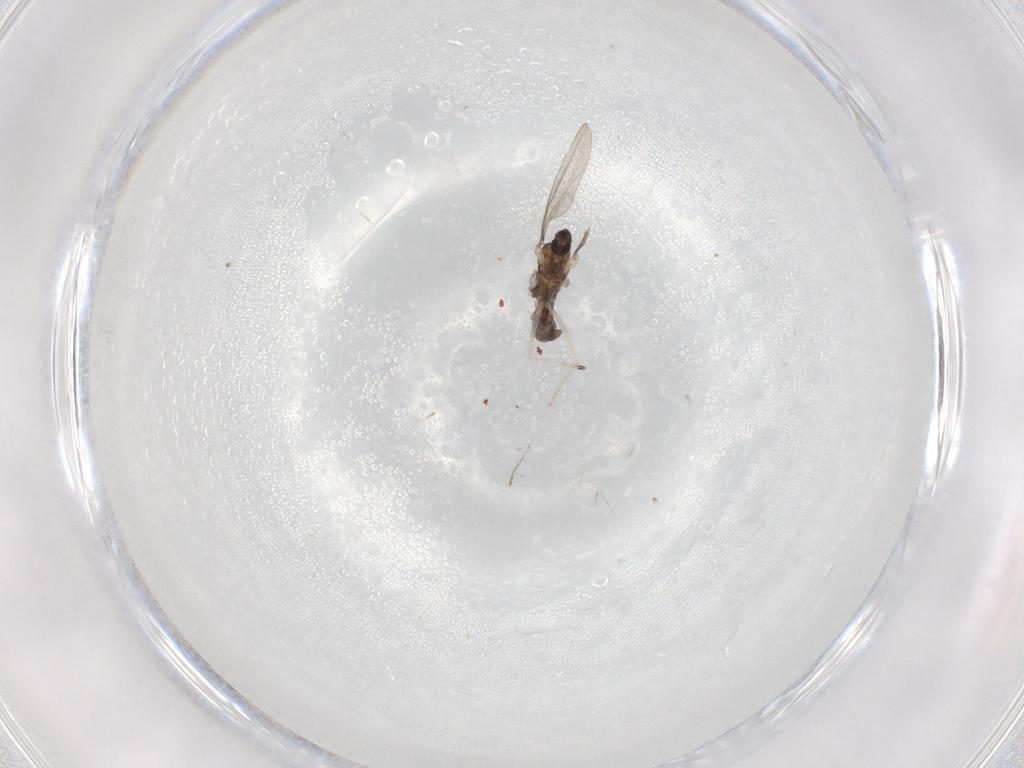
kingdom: Animalia
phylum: Arthropoda
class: Insecta
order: Diptera
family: Cecidomyiidae
